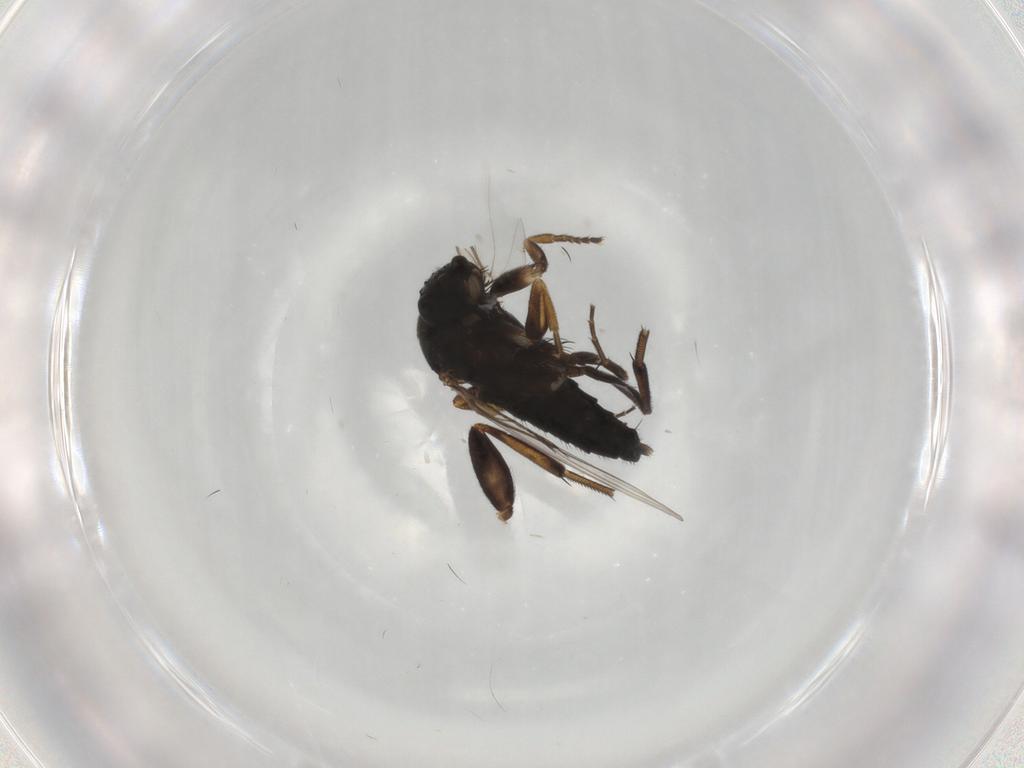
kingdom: Animalia
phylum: Arthropoda
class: Insecta
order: Diptera
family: Phoridae
